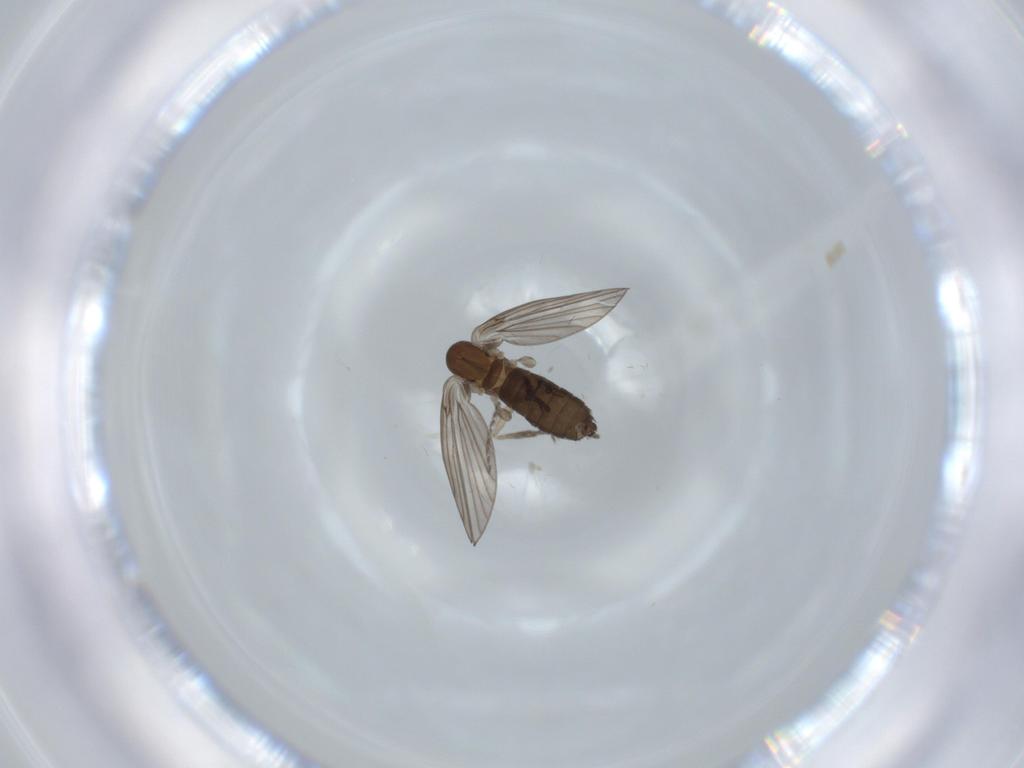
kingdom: Animalia
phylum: Arthropoda
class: Insecta
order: Diptera
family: Psychodidae
